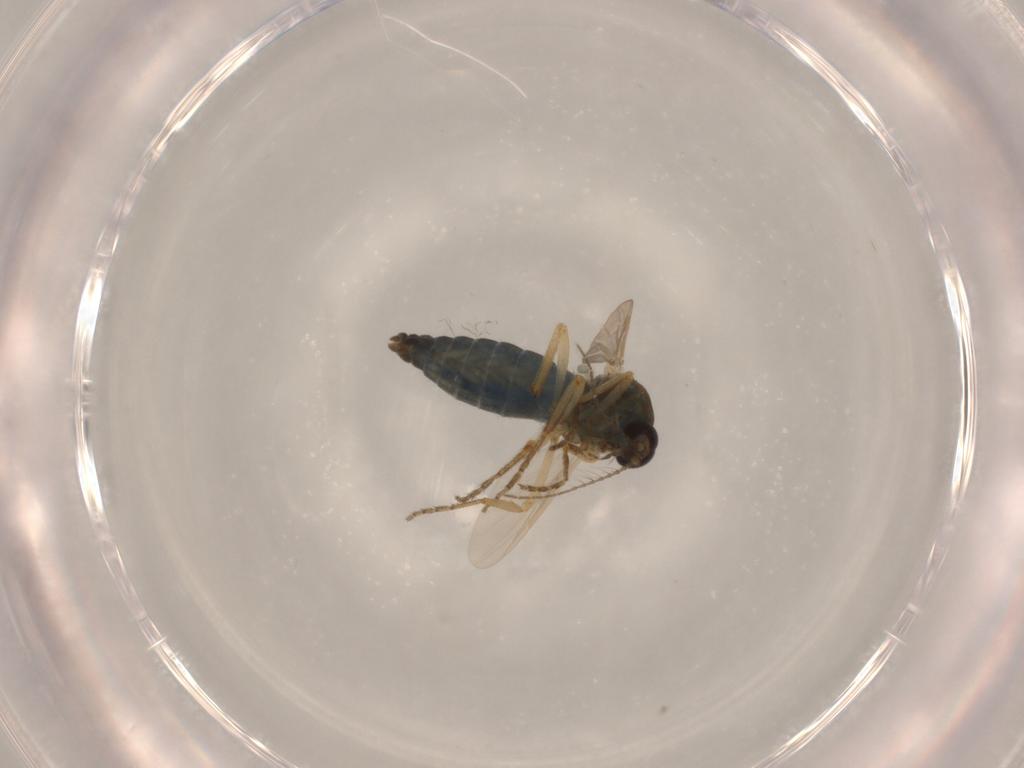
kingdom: Animalia
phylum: Arthropoda
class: Insecta
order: Diptera
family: Ceratopogonidae
